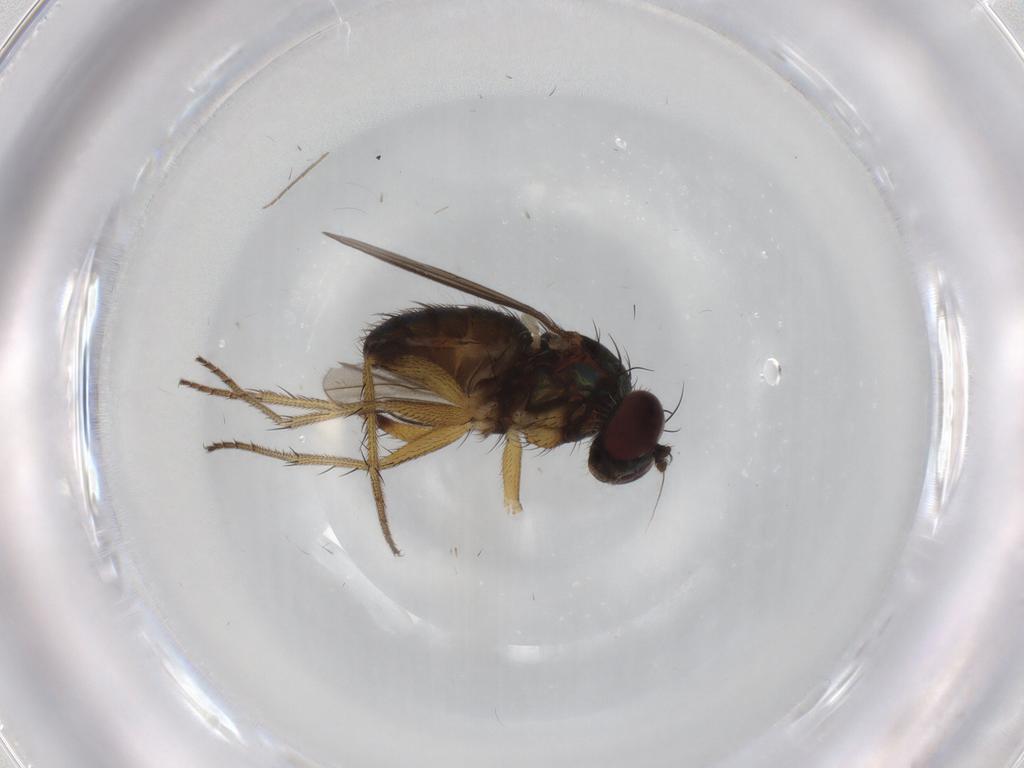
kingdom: Animalia
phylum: Arthropoda
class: Insecta
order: Diptera
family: Dolichopodidae
